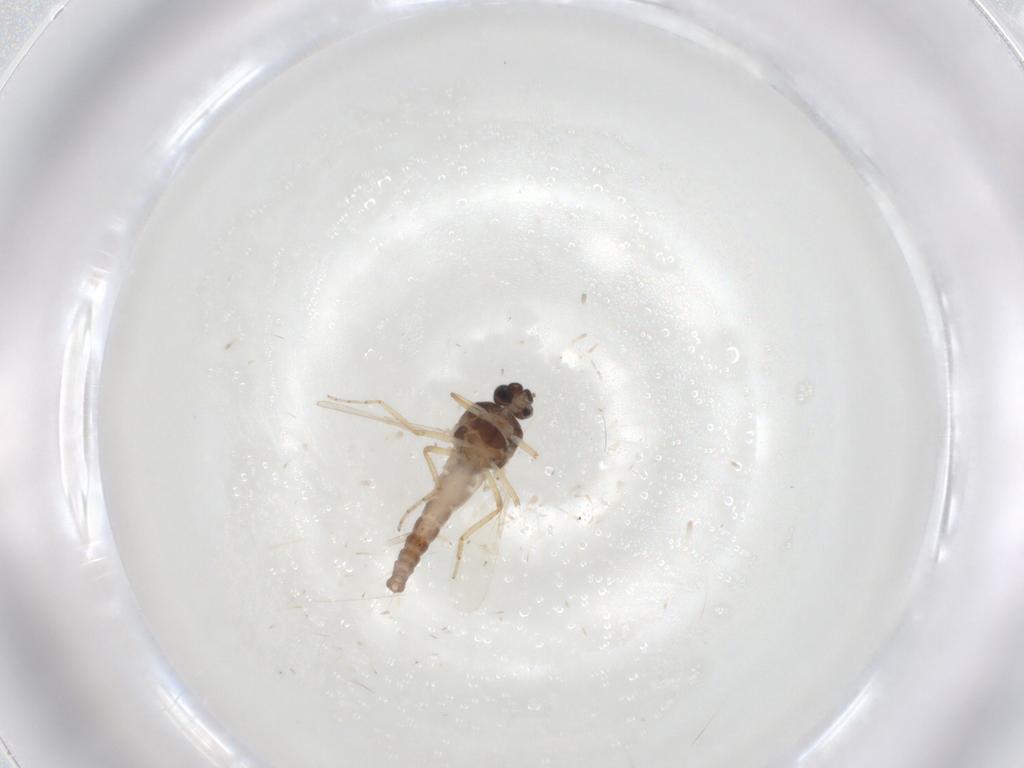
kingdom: Animalia
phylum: Arthropoda
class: Insecta
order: Diptera
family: Ceratopogonidae
